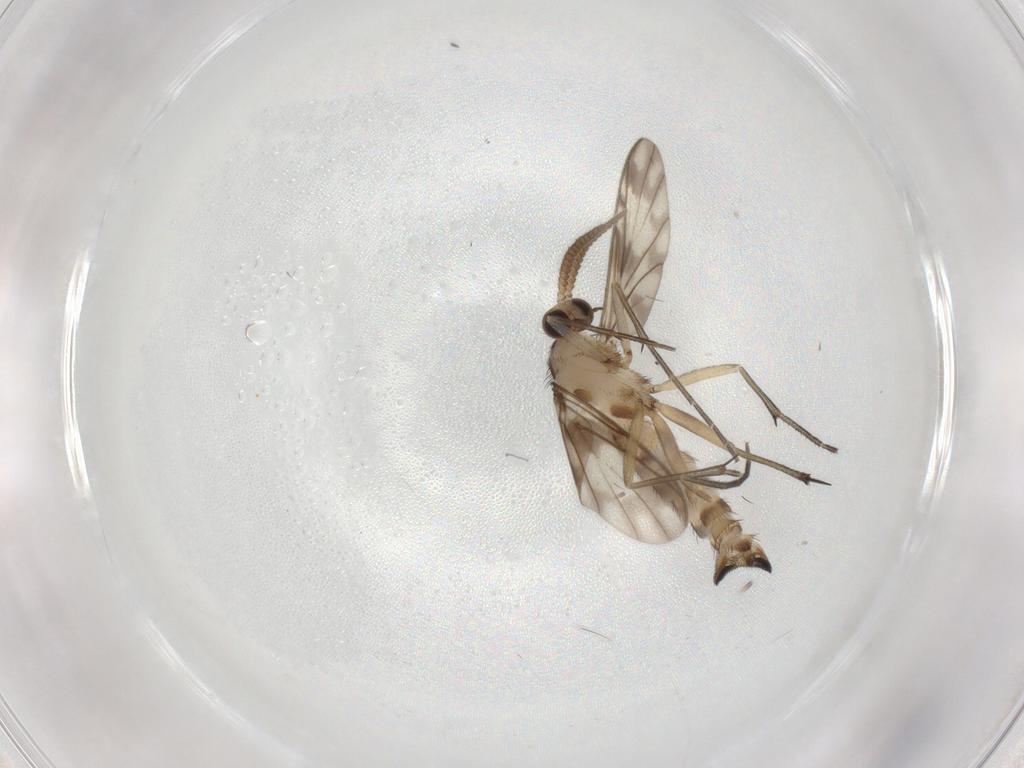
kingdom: Animalia
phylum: Arthropoda
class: Insecta
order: Diptera
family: Keroplatidae
